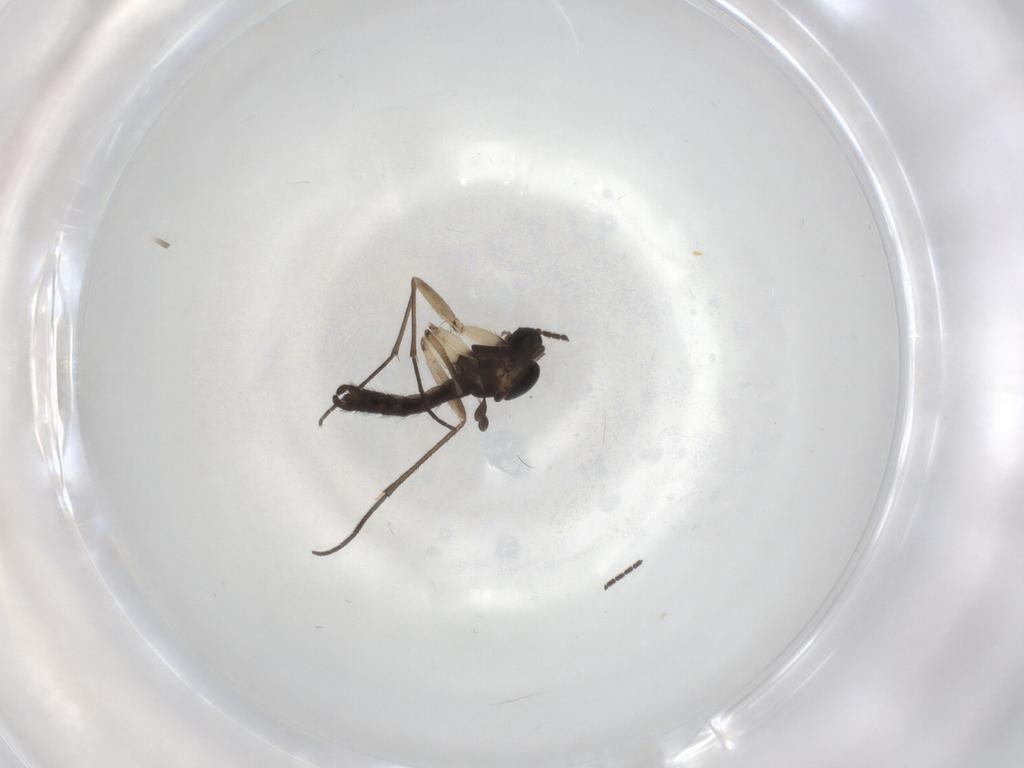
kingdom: Animalia
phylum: Arthropoda
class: Insecta
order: Diptera
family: Sciaridae
